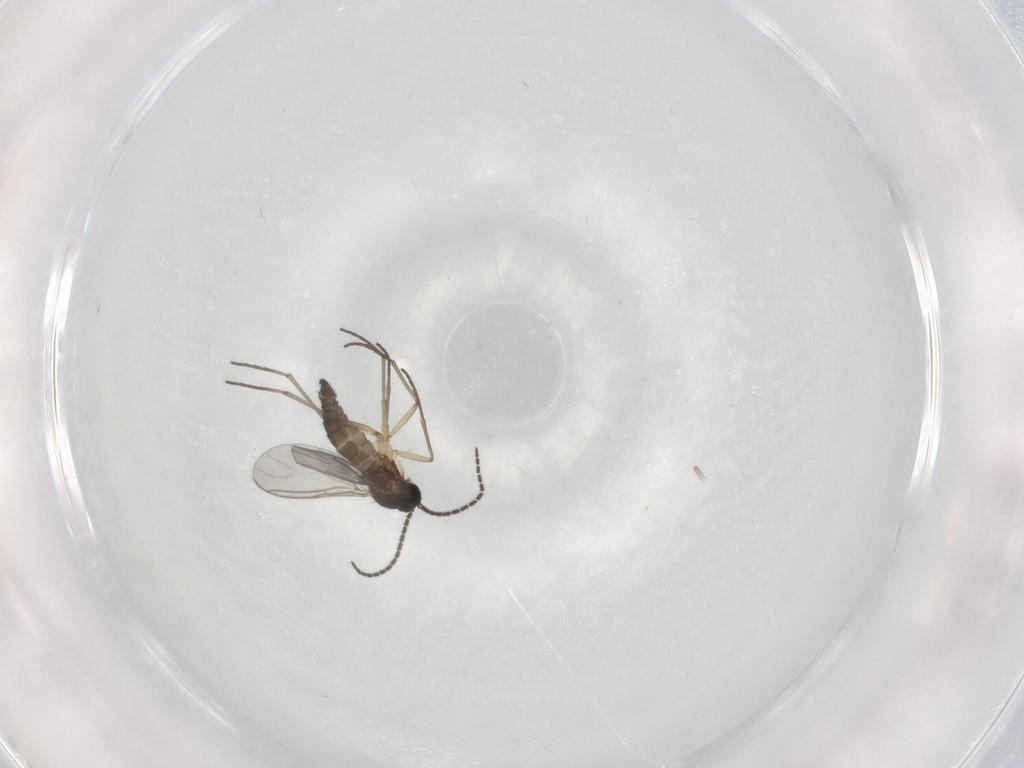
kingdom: Animalia
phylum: Arthropoda
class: Insecta
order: Diptera
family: Sciaridae
